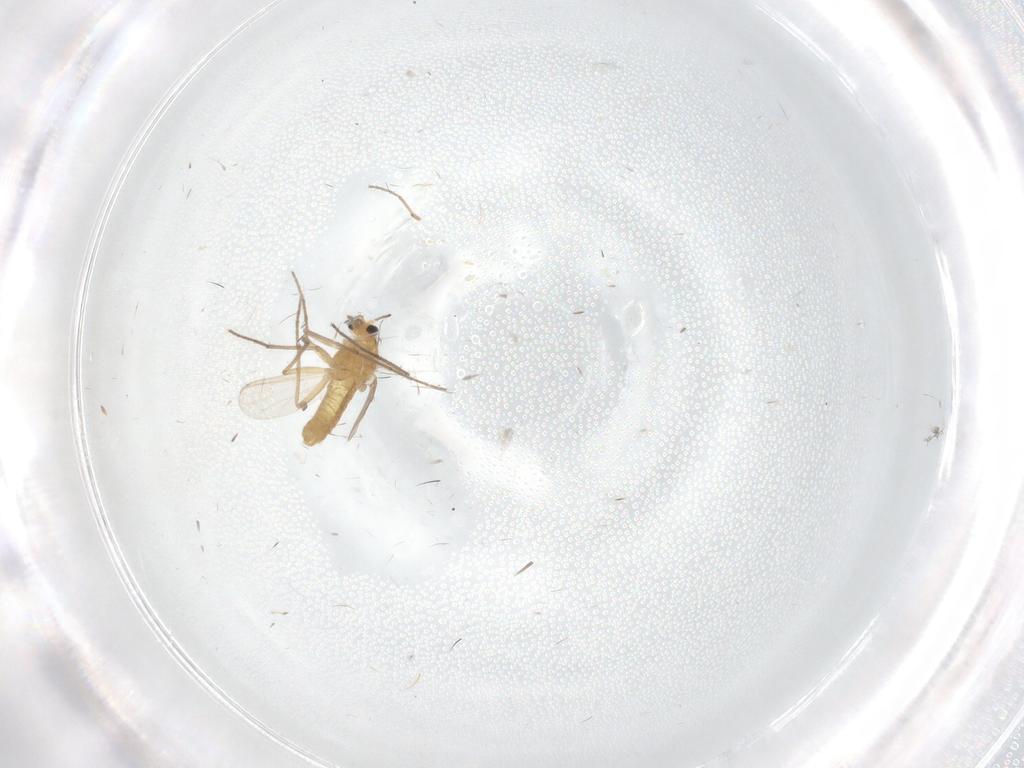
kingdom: Animalia
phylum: Arthropoda
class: Insecta
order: Diptera
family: Chironomidae
